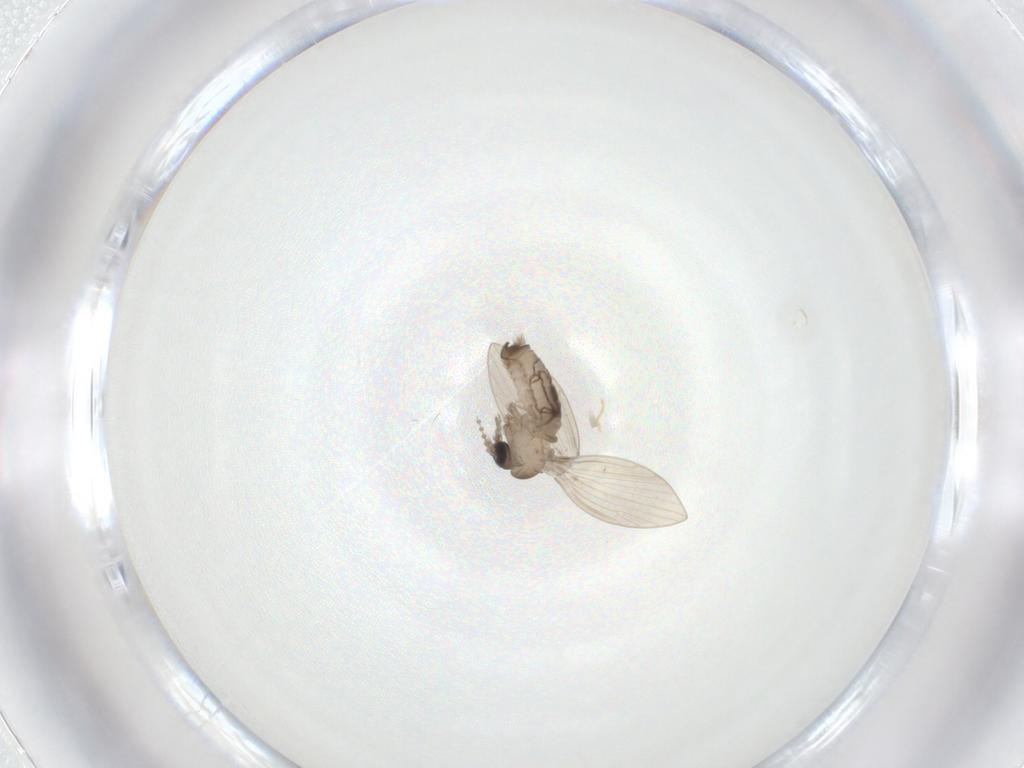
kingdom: Animalia
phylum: Arthropoda
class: Insecta
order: Diptera
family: Psychodidae
